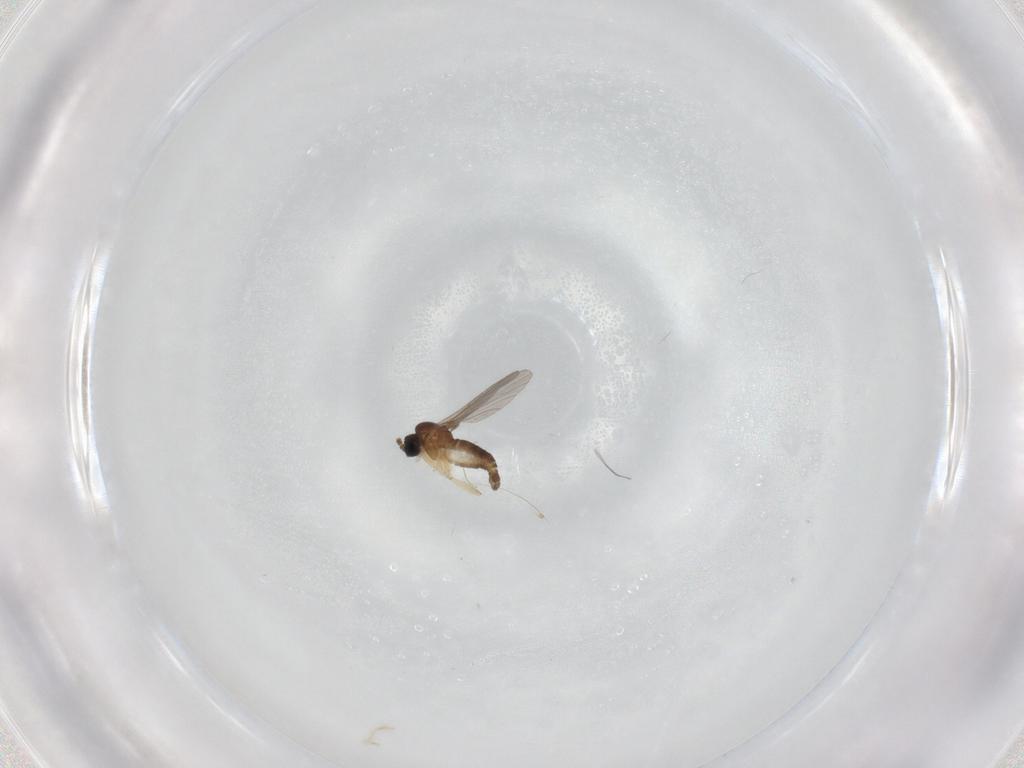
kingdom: Animalia
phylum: Arthropoda
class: Insecta
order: Diptera
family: Sciaridae
